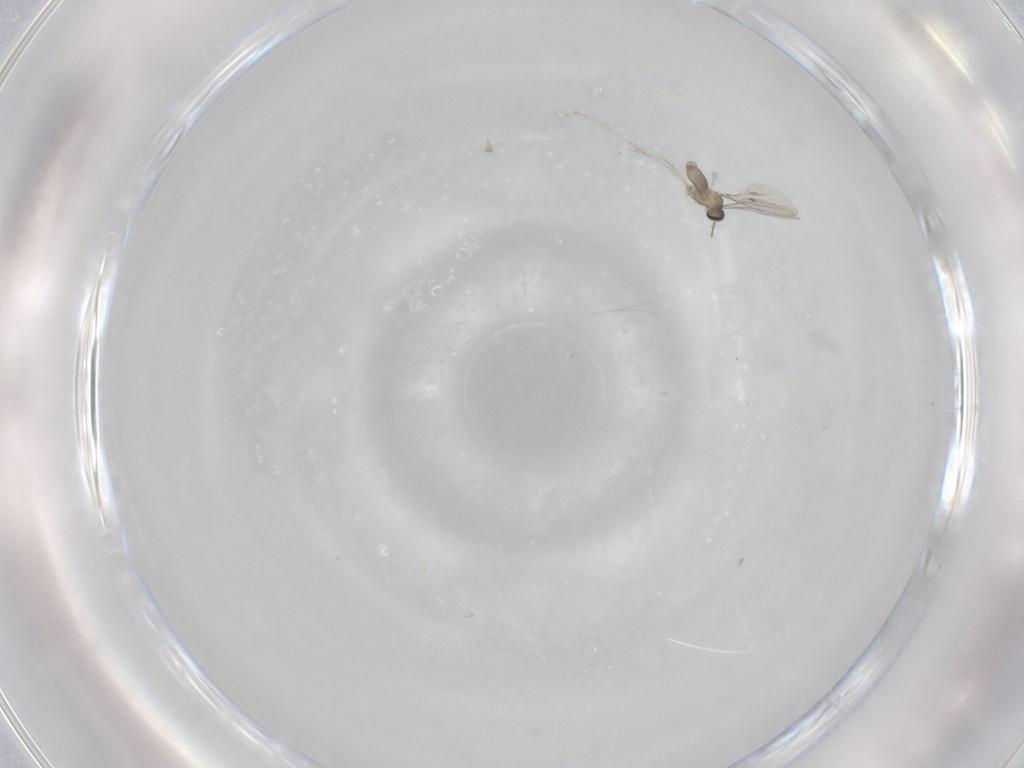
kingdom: Animalia
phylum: Arthropoda
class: Insecta
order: Diptera
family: Cecidomyiidae
